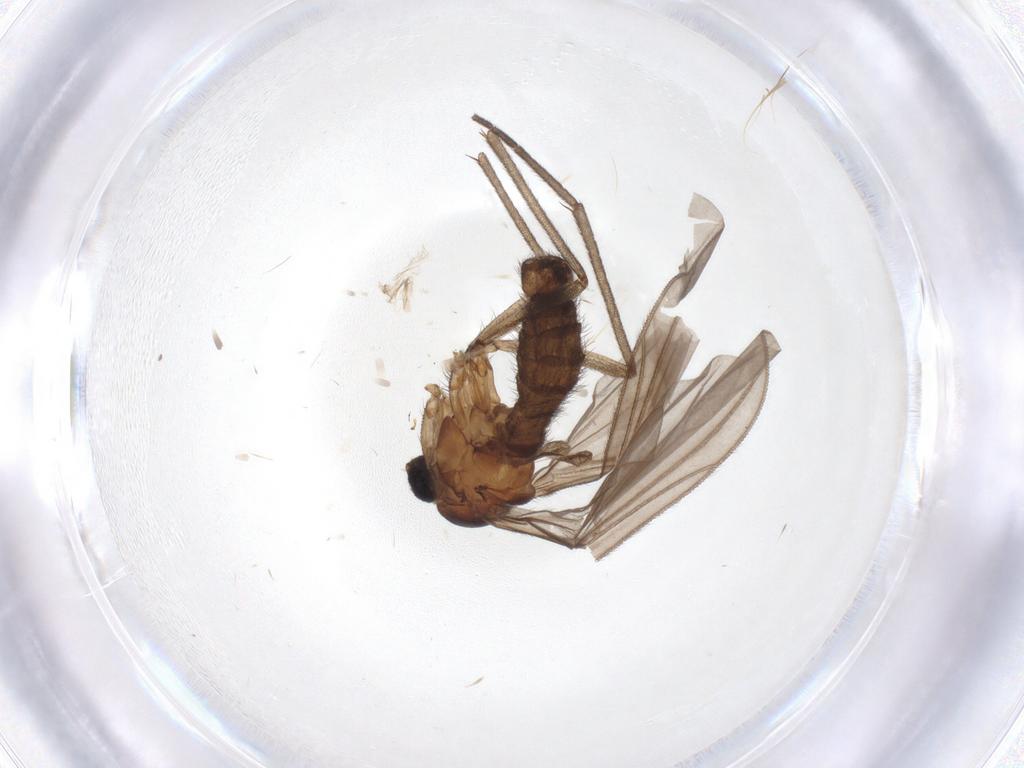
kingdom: Animalia
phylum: Arthropoda
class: Insecta
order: Diptera
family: Sciaridae
